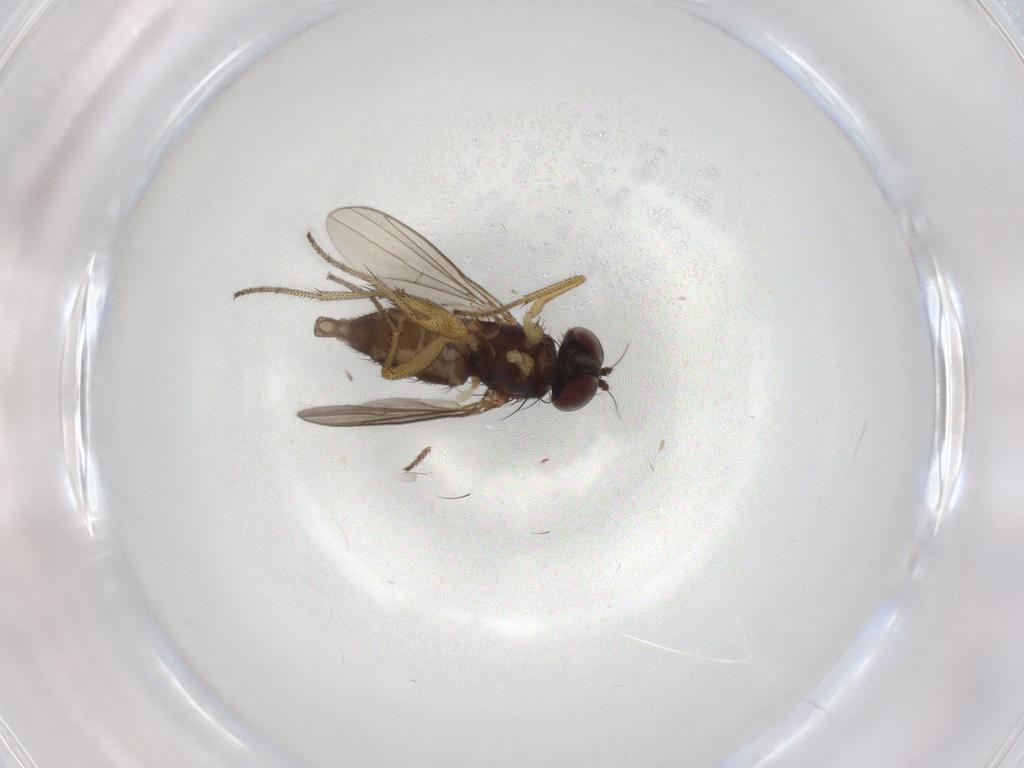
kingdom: Animalia
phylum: Arthropoda
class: Insecta
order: Diptera
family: Dolichopodidae
